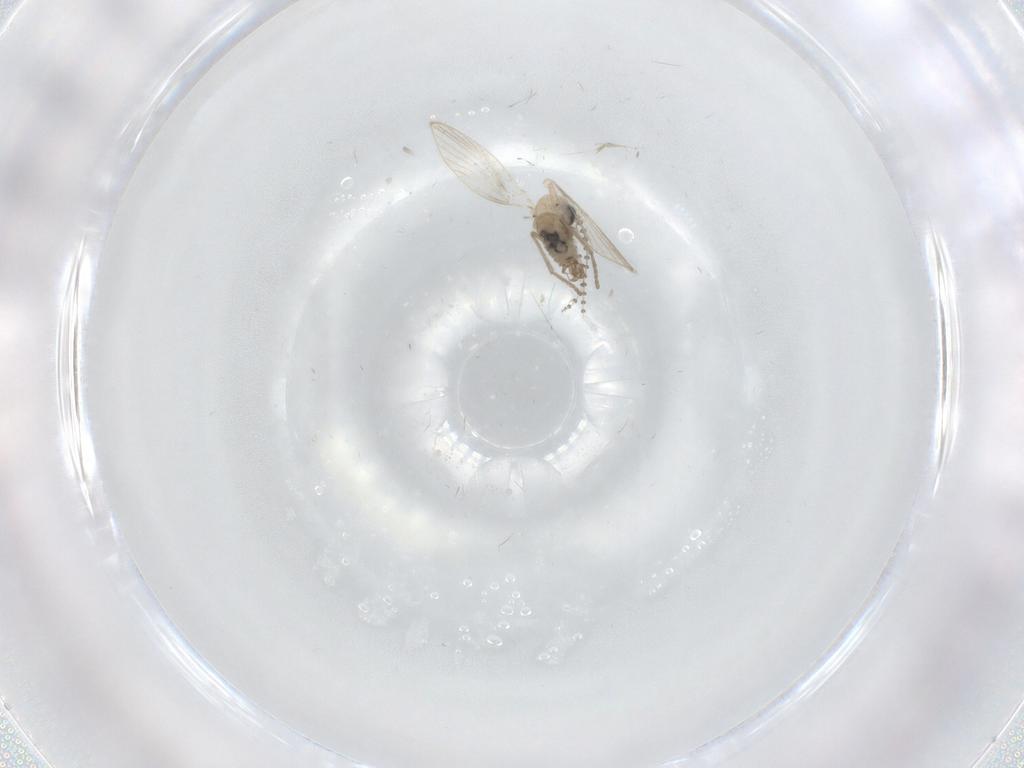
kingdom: Animalia
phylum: Arthropoda
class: Insecta
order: Diptera
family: Psychodidae
